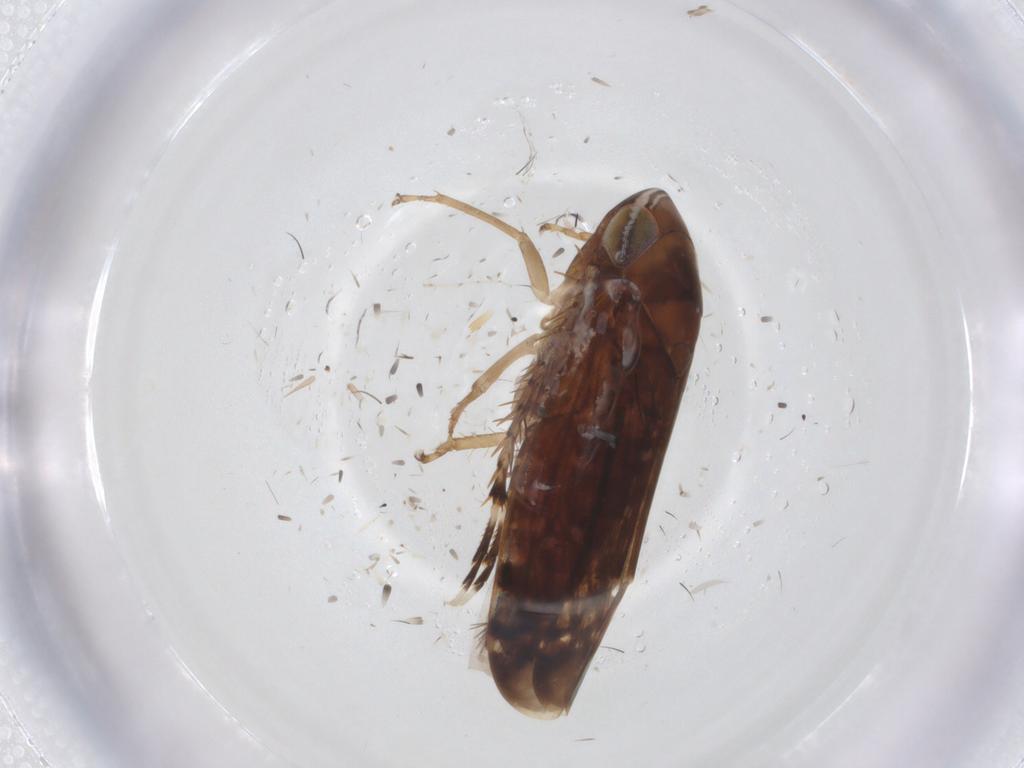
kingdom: Animalia
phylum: Arthropoda
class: Insecta
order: Hemiptera
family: Cicadellidae
